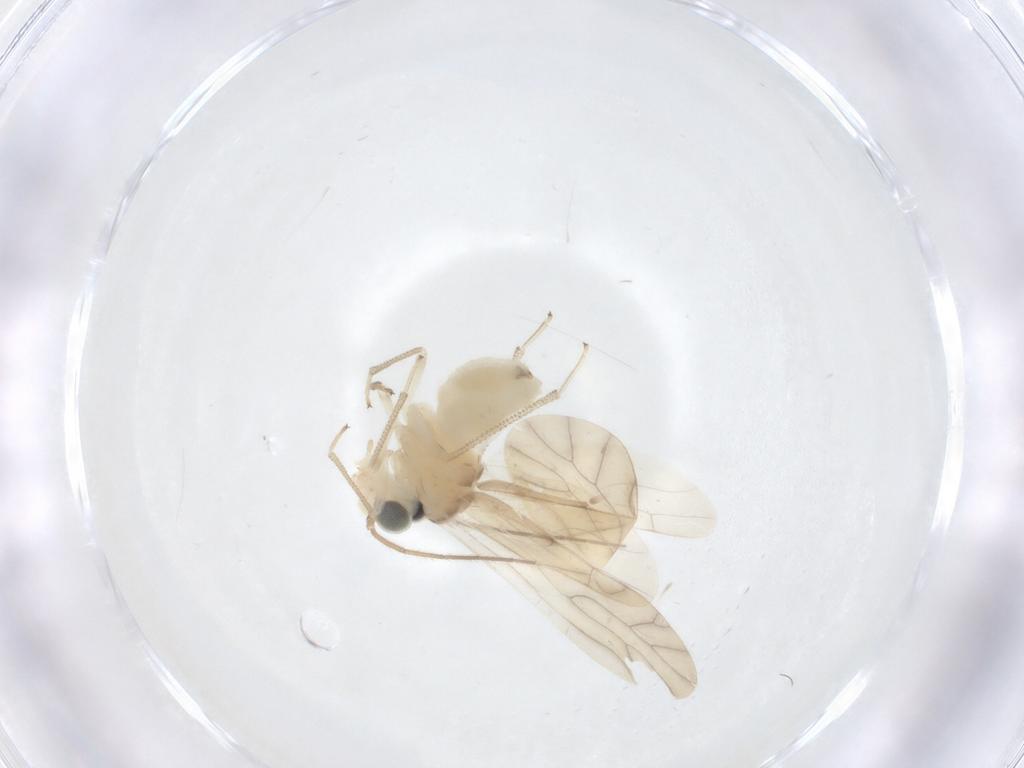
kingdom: Animalia
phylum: Arthropoda
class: Insecta
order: Psocodea
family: Caeciliusidae
